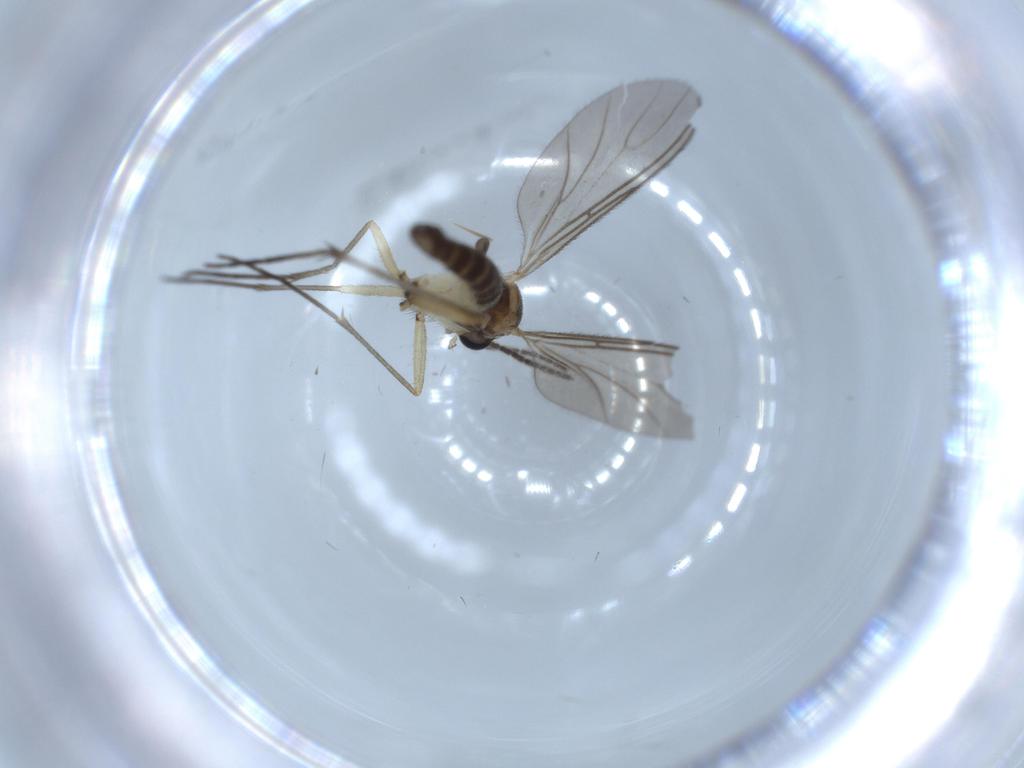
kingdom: Animalia
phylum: Arthropoda
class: Insecta
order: Diptera
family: Sciaridae
